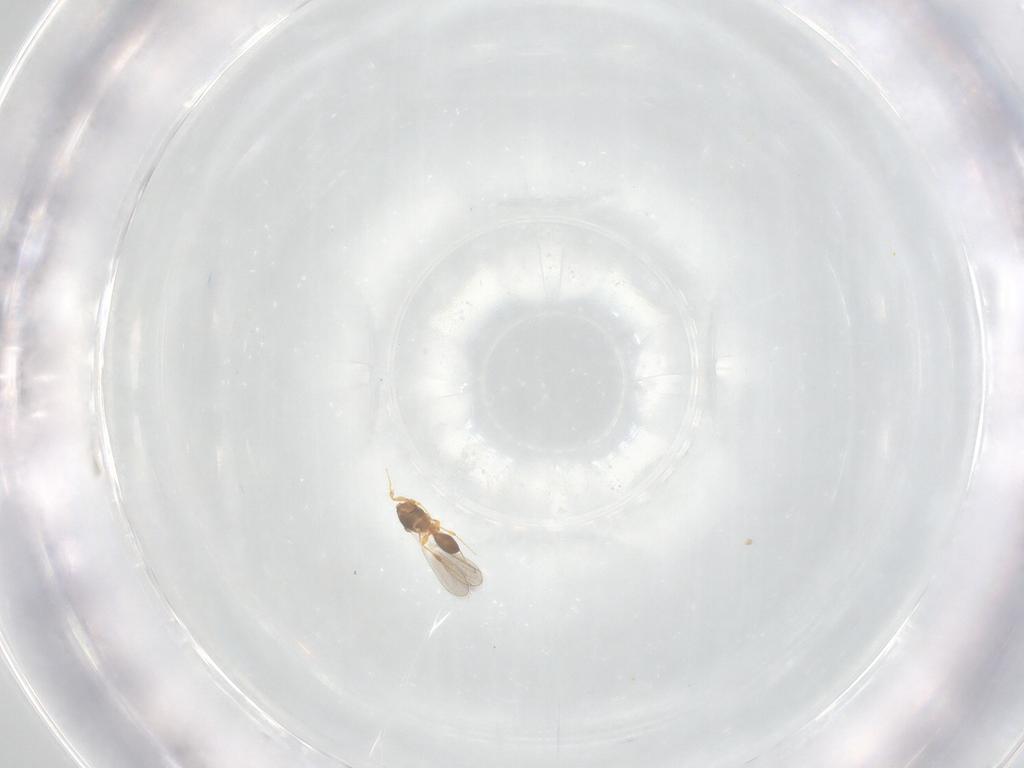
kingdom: Animalia
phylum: Arthropoda
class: Insecta
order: Hymenoptera
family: Platygastridae
